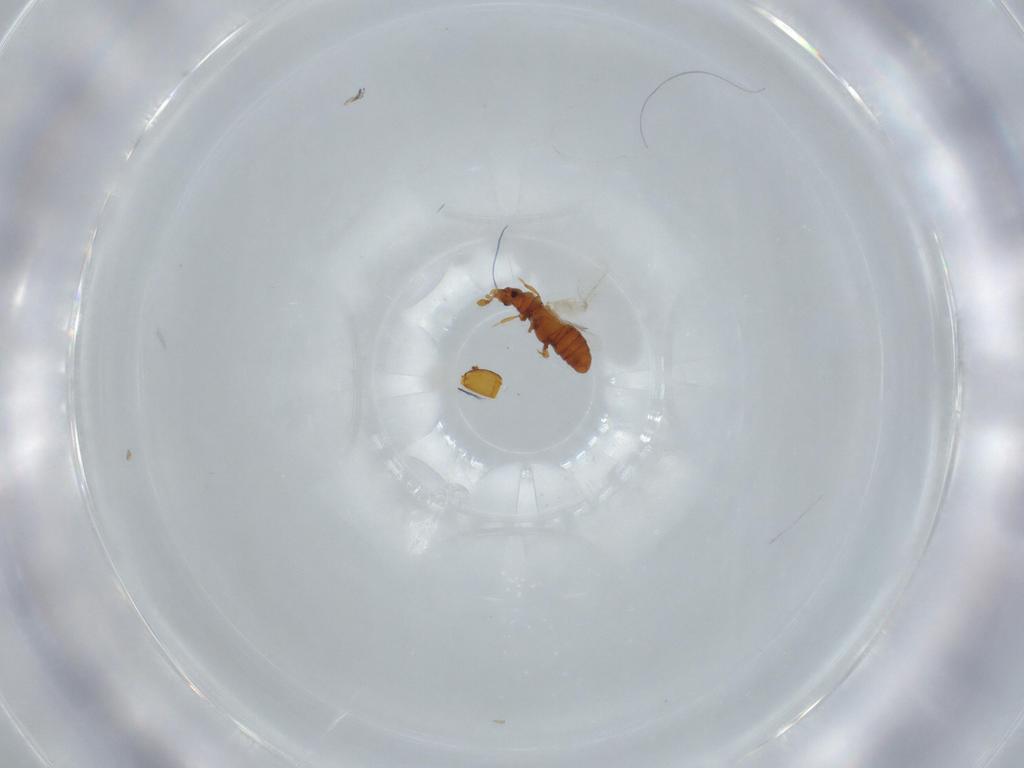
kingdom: Animalia
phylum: Arthropoda
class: Insecta
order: Coleoptera
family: Staphylinidae
